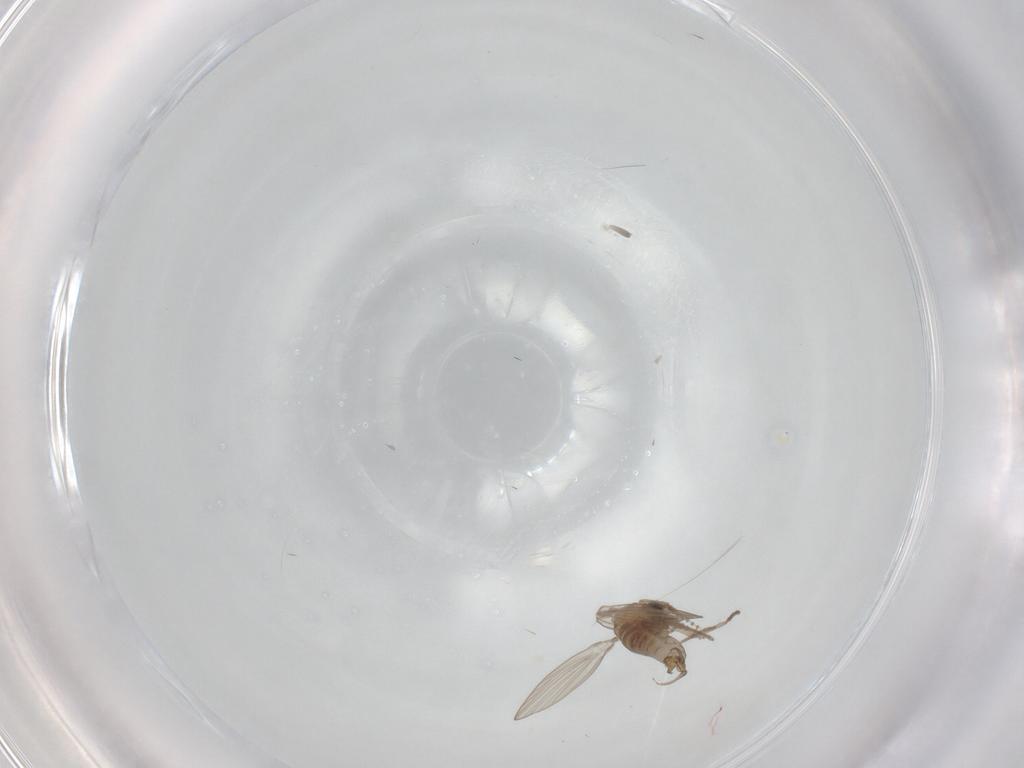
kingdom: Animalia
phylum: Arthropoda
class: Insecta
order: Diptera
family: Psychodidae
